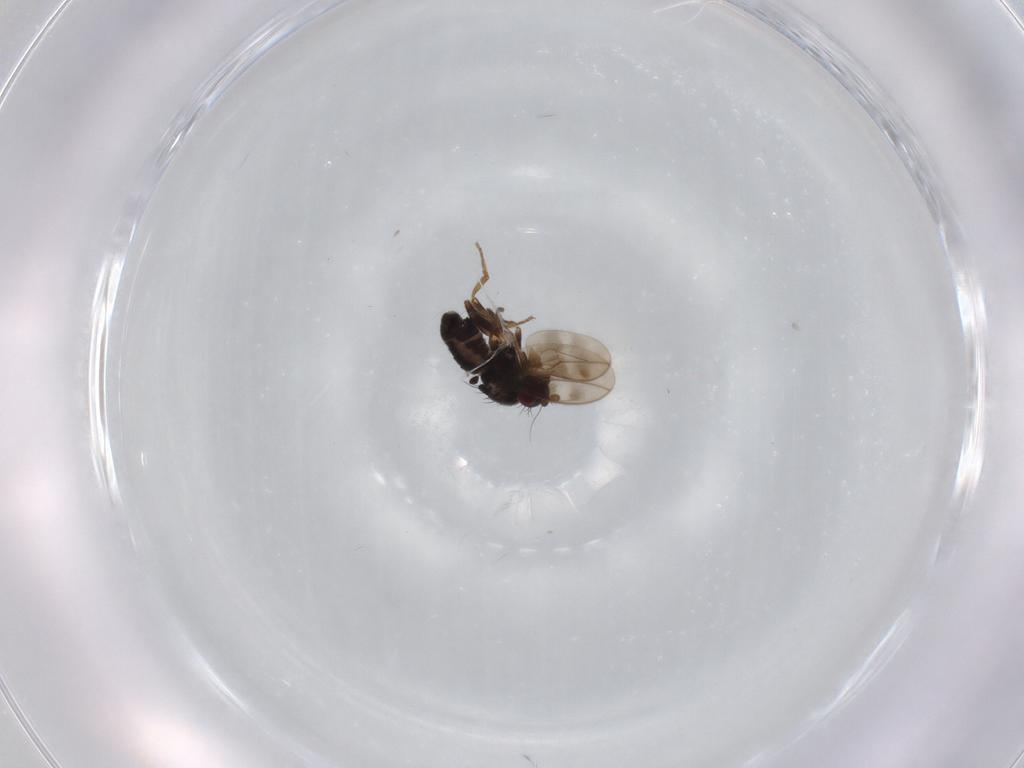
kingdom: Animalia
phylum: Arthropoda
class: Insecta
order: Diptera
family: Sphaeroceridae
